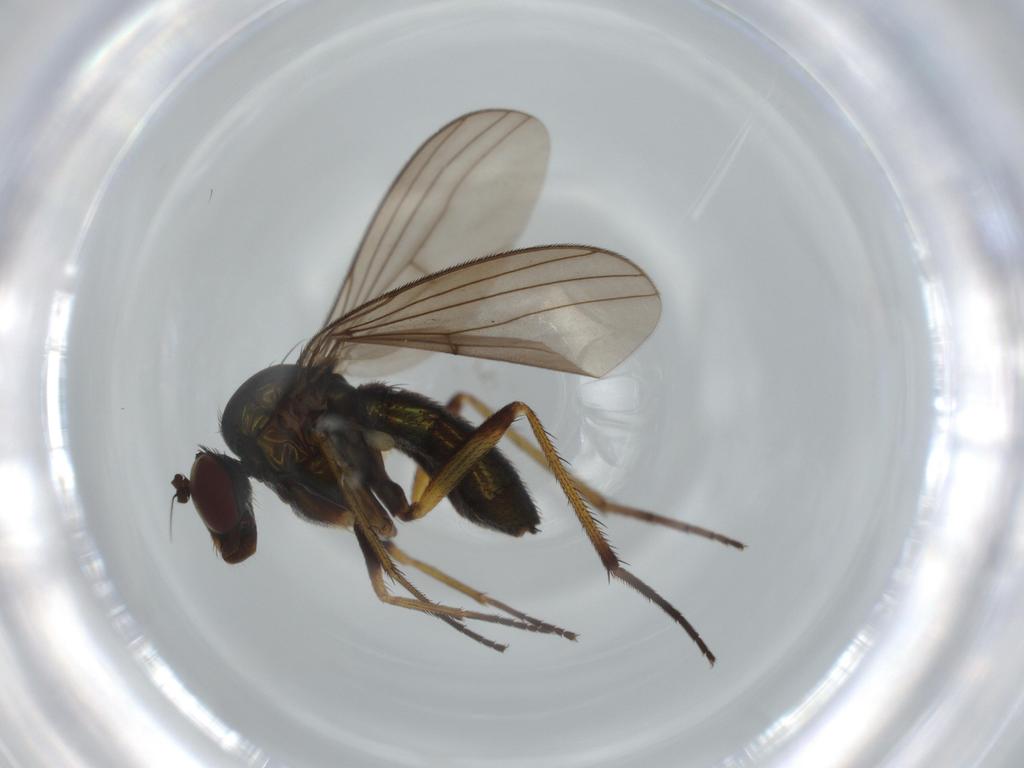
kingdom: Animalia
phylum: Arthropoda
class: Insecta
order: Diptera
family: Dolichopodidae
